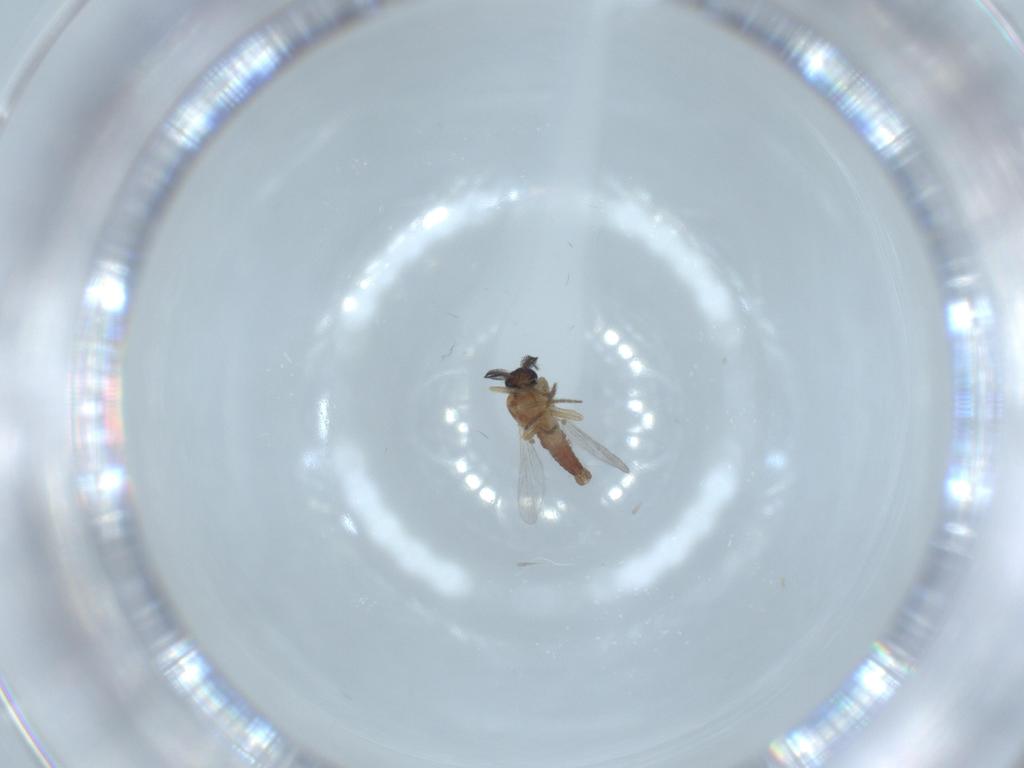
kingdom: Animalia
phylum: Arthropoda
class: Insecta
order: Diptera
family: Ceratopogonidae
